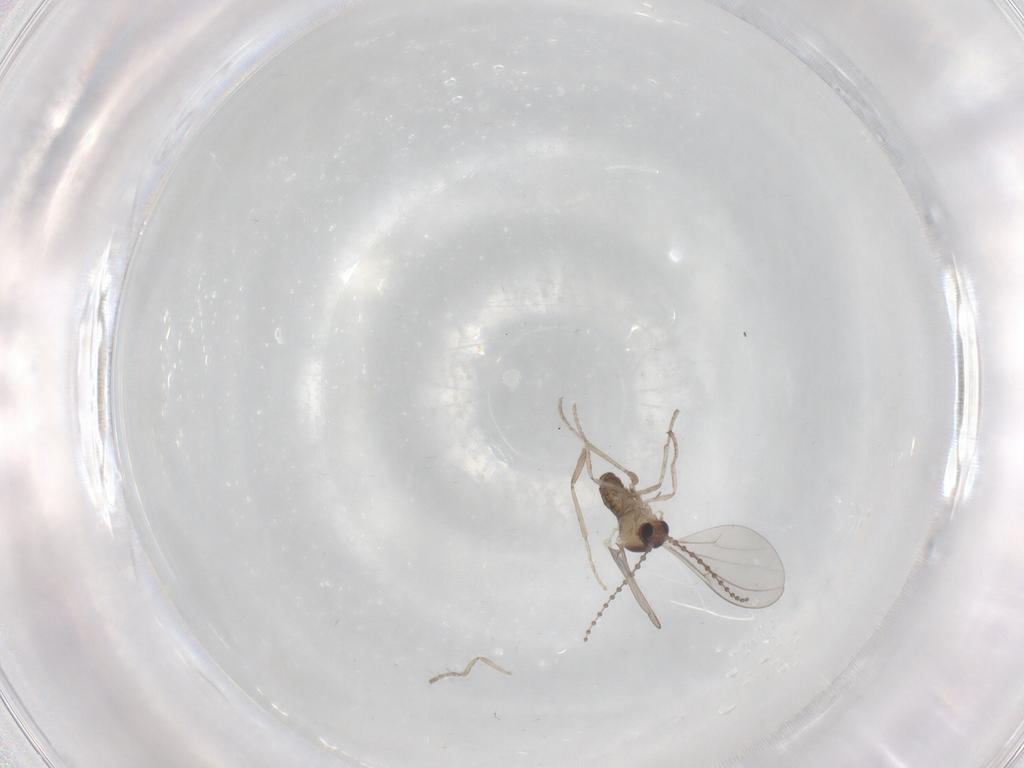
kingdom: Animalia
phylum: Arthropoda
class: Insecta
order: Diptera
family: Cecidomyiidae
